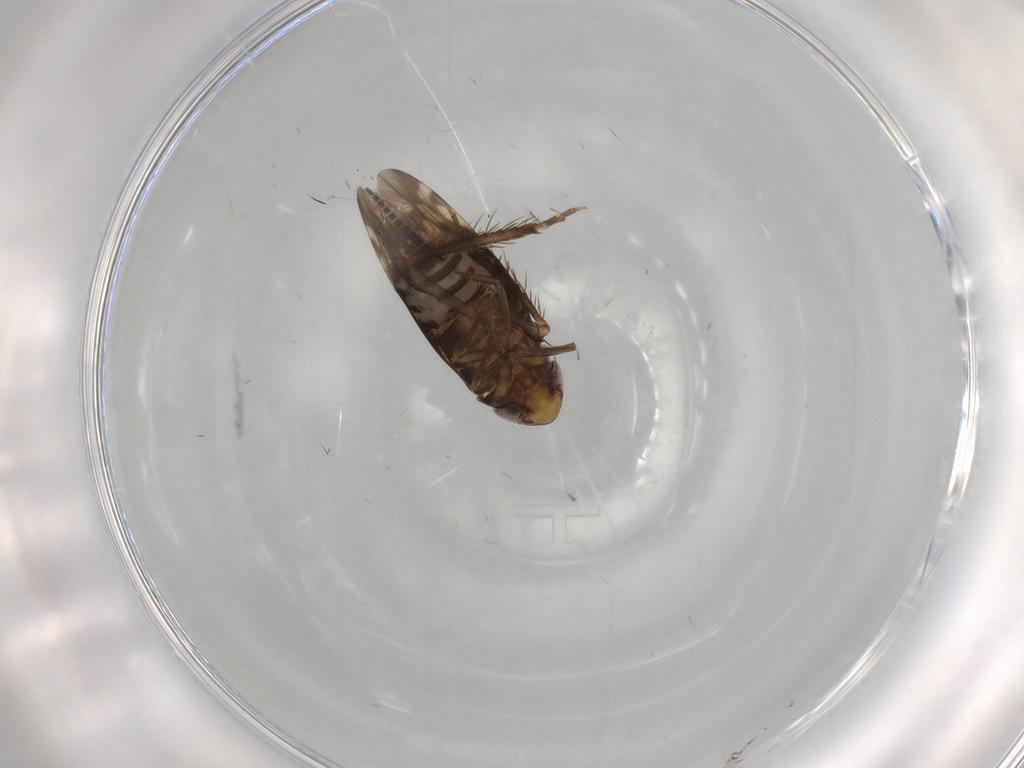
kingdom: Animalia
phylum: Arthropoda
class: Insecta
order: Hemiptera
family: Cicadellidae
